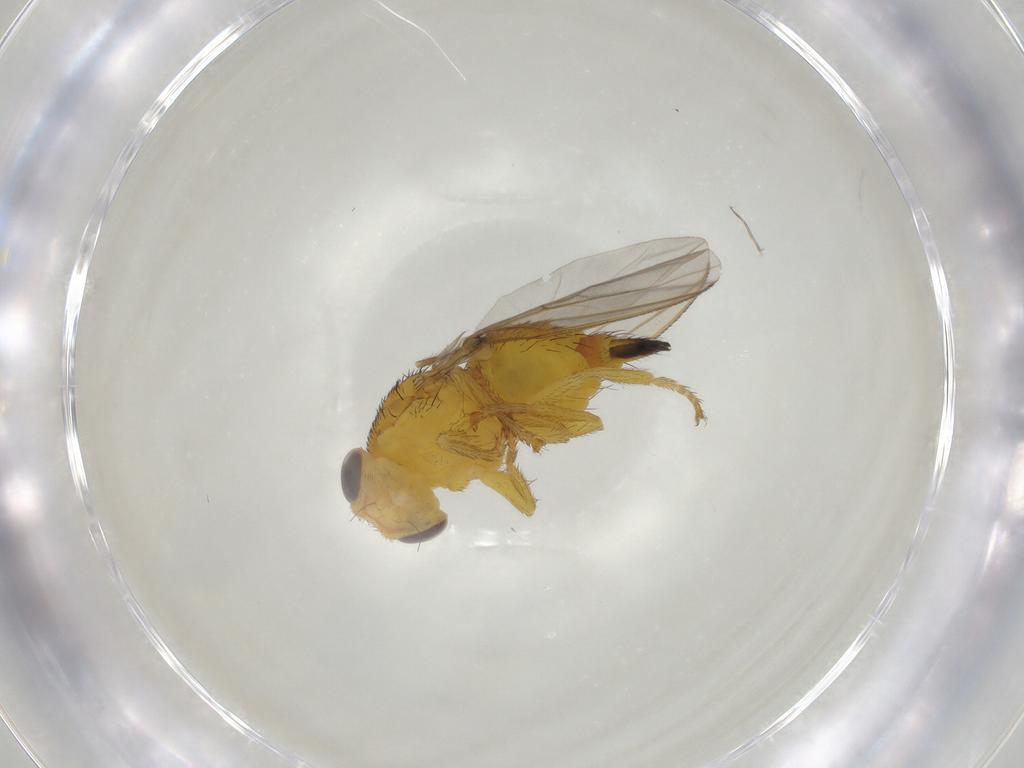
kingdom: Animalia
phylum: Arthropoda
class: Insecta
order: Diptera
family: Fergusoninidae
